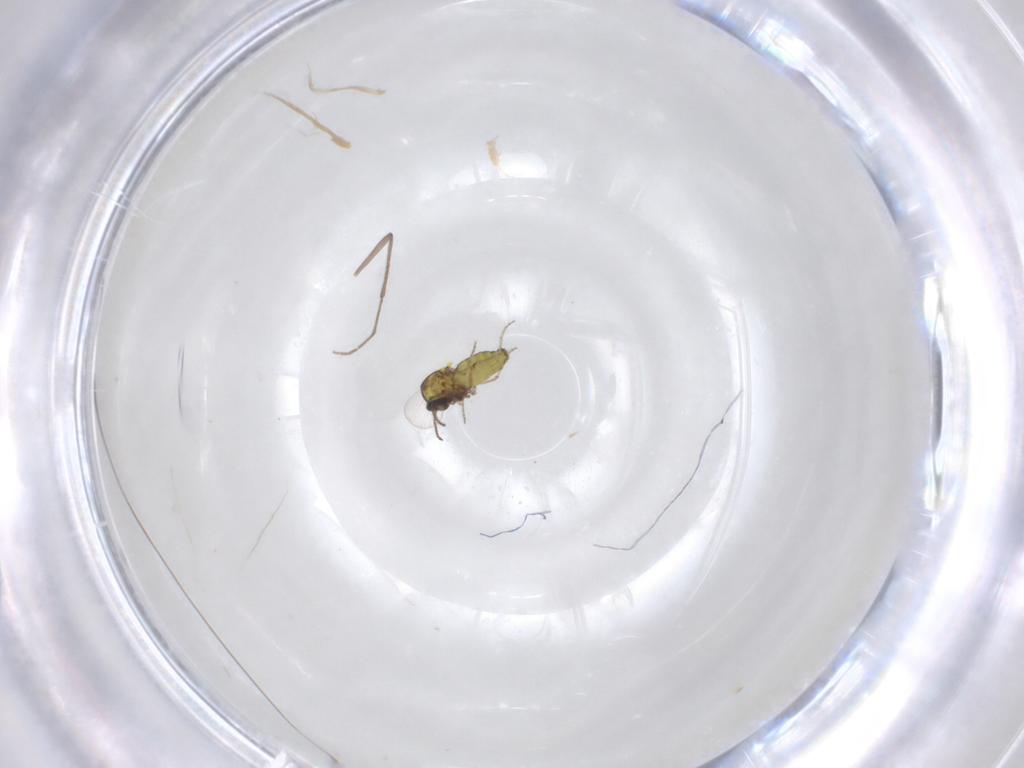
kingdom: Animalia
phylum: Arthropoda
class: Insecta
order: Diptera
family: Ceratopogonidae
